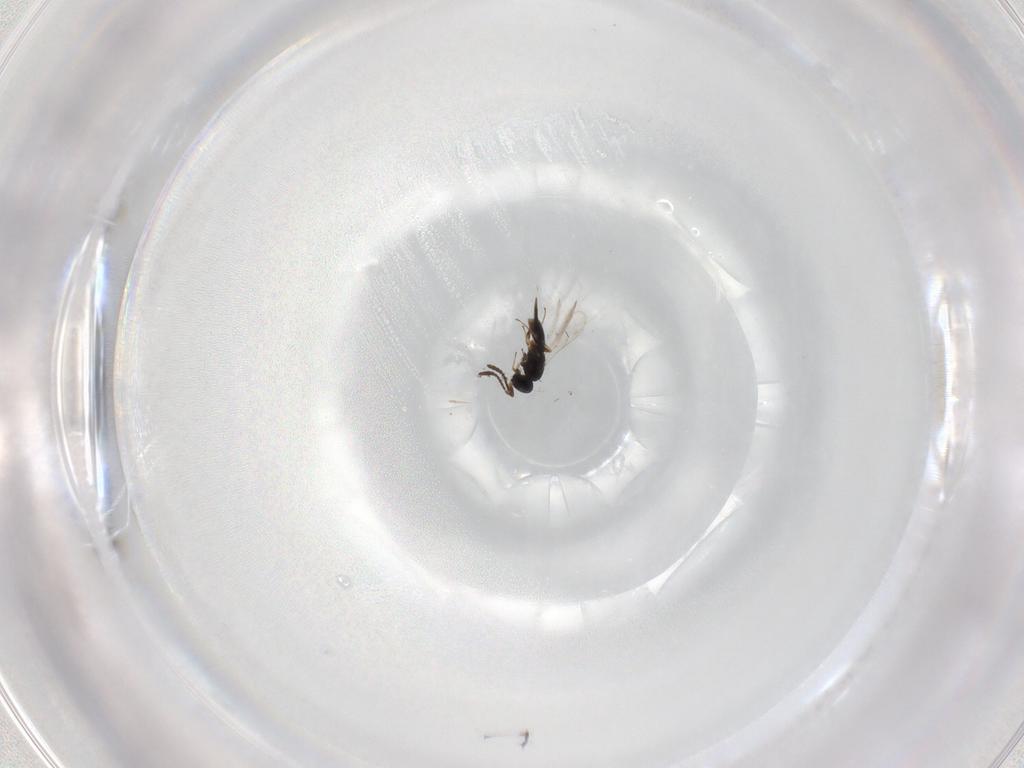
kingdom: Animalia
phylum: Arthropoda
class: Insecta
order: Hymenoptera
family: Scelionidae
